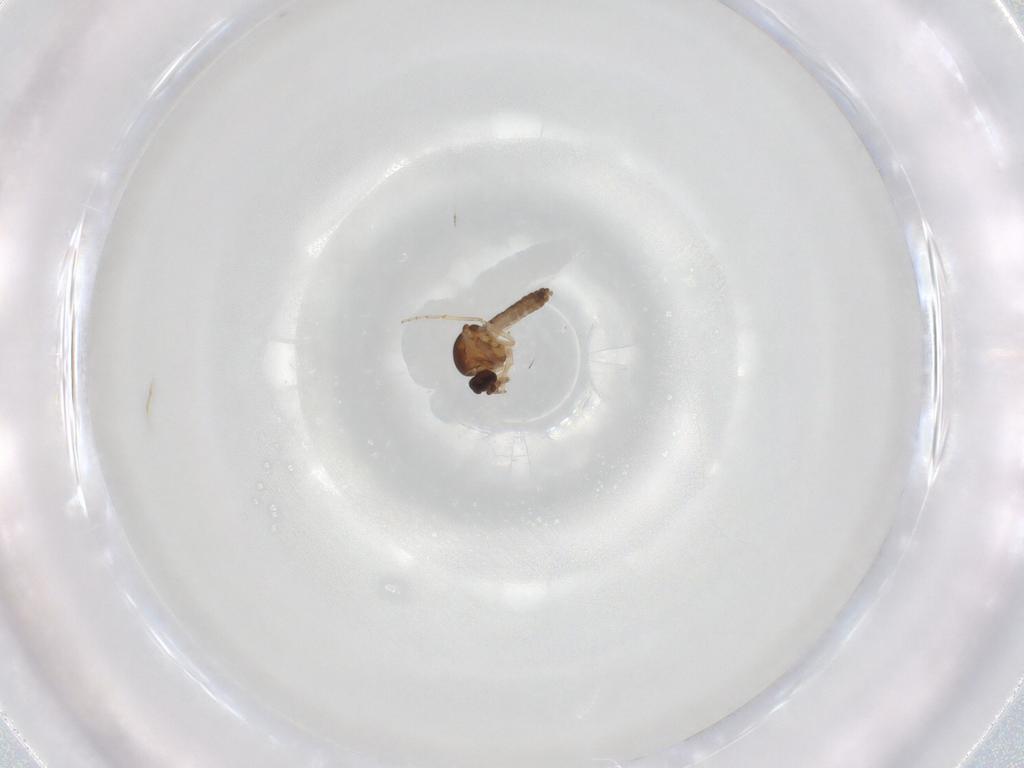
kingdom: Animalia
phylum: Arthropoda
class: Insecta
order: Diptera
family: Ceratopogonidae
